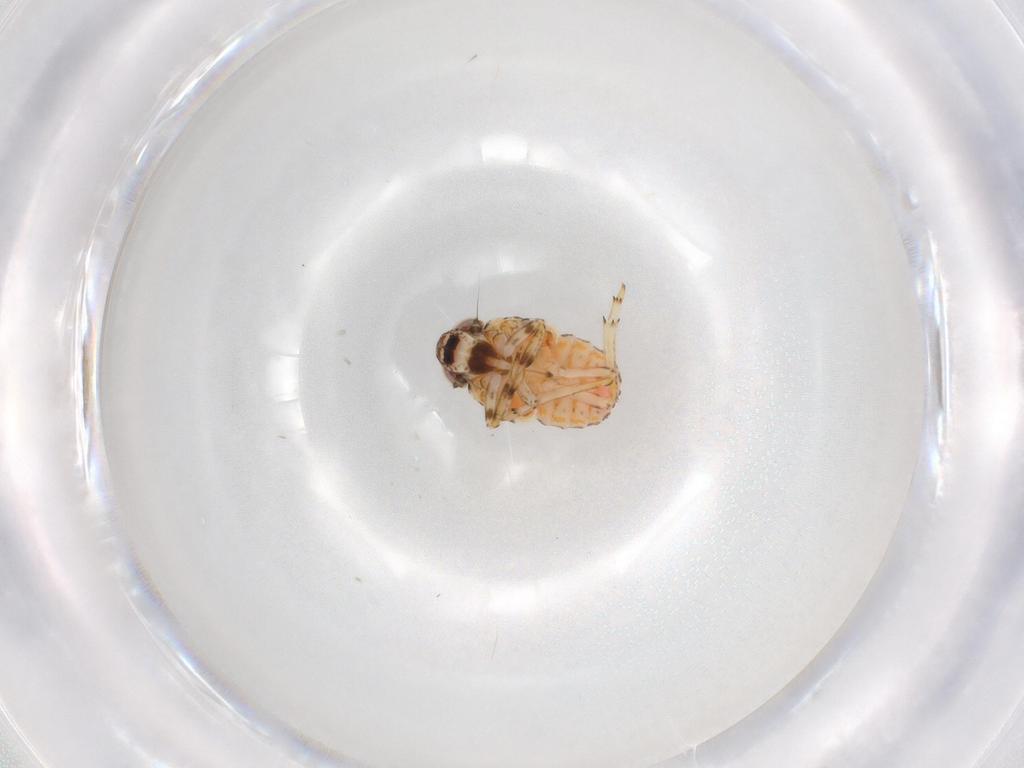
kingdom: Animalia
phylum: Arthropoda
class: Insecta
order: Hemiptera
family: Issidae
